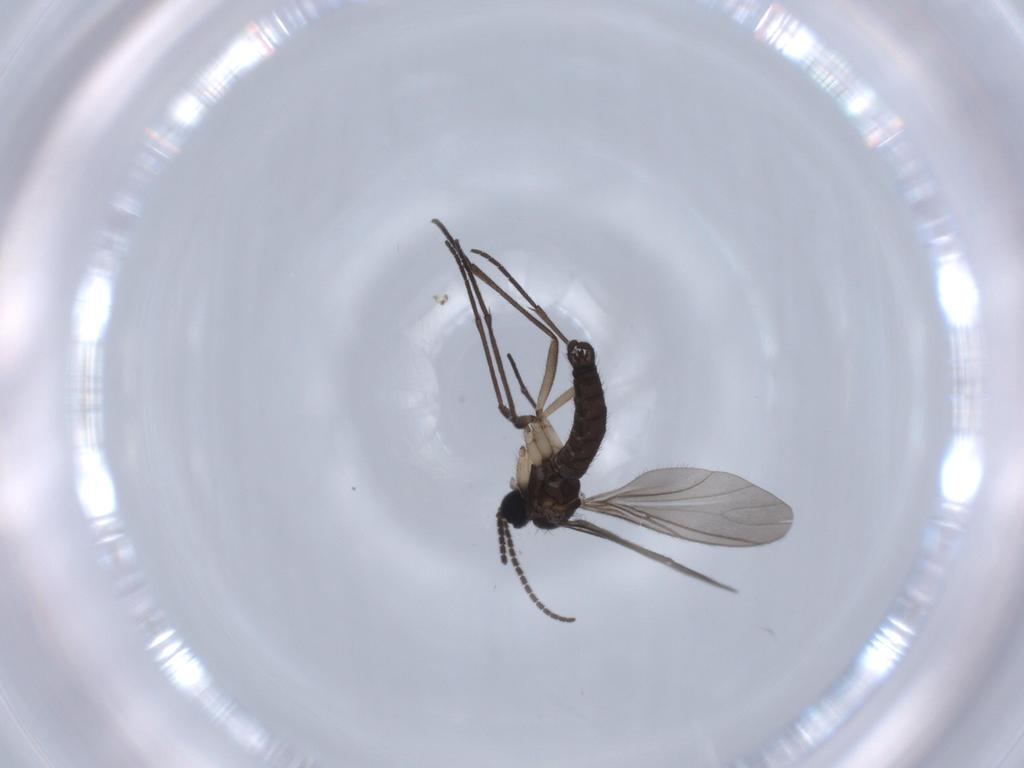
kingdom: Animalia
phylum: Arthropoda
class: Insecta
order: Diptera
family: Sciaridae
